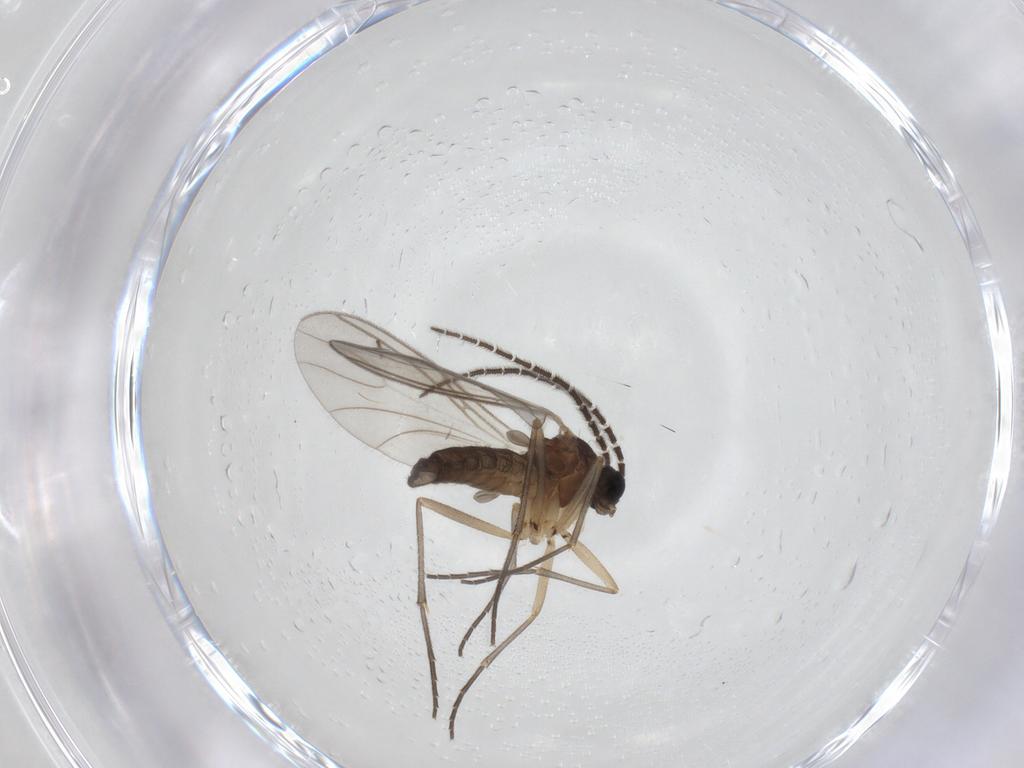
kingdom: Animalia
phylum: Arthropoda
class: Insecta
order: Diptera
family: Sciaridae
